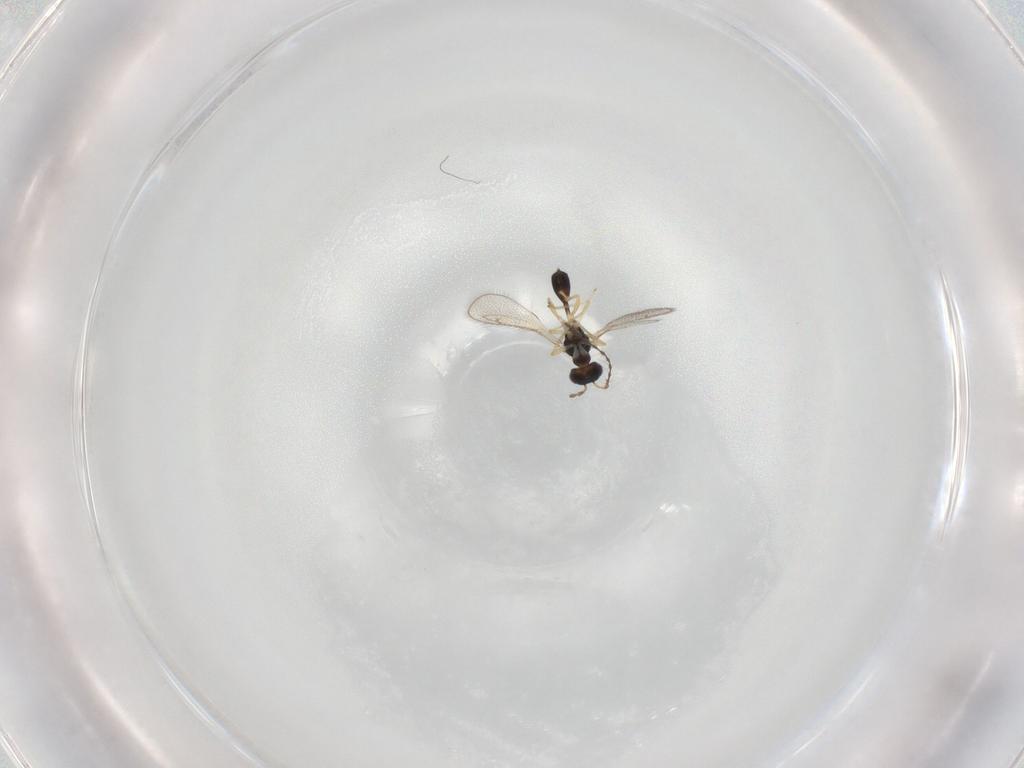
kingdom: Animalia
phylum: Arthropoda
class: Insecta
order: Hymenoptera
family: Diparidae
